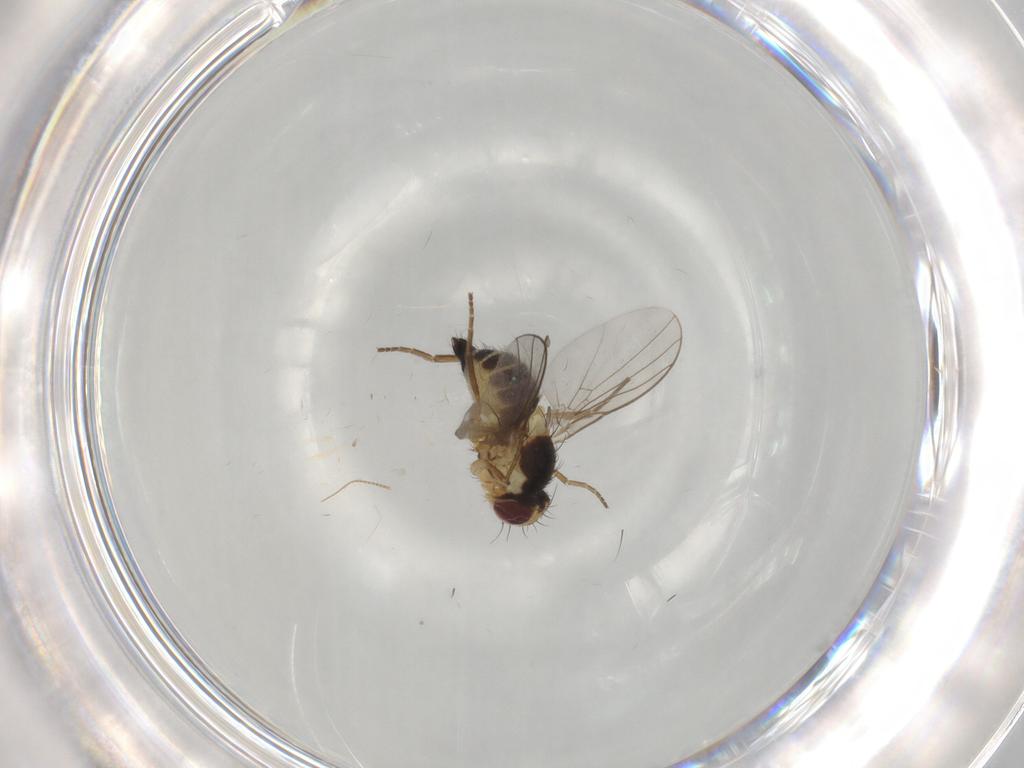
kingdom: Animalia
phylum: Arthropoda
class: Insecta
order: Diptera
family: Agromyzidae
